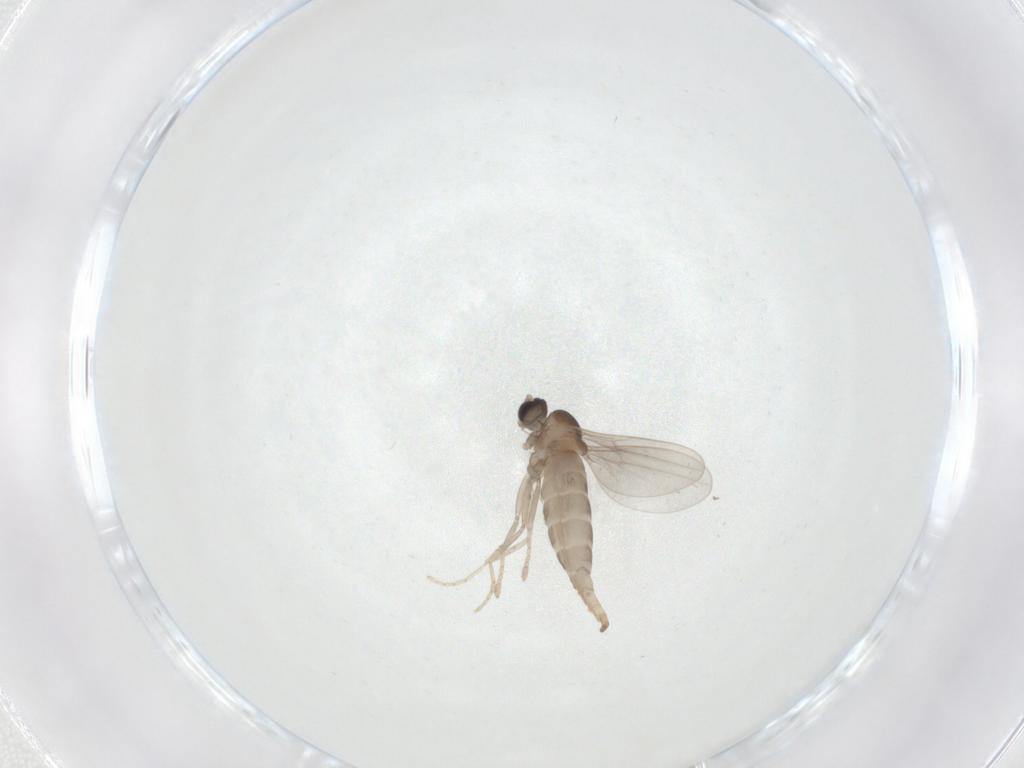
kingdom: Animalia
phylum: Arthropoda
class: Insecta
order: Diptera
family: Cecidomyiidae
